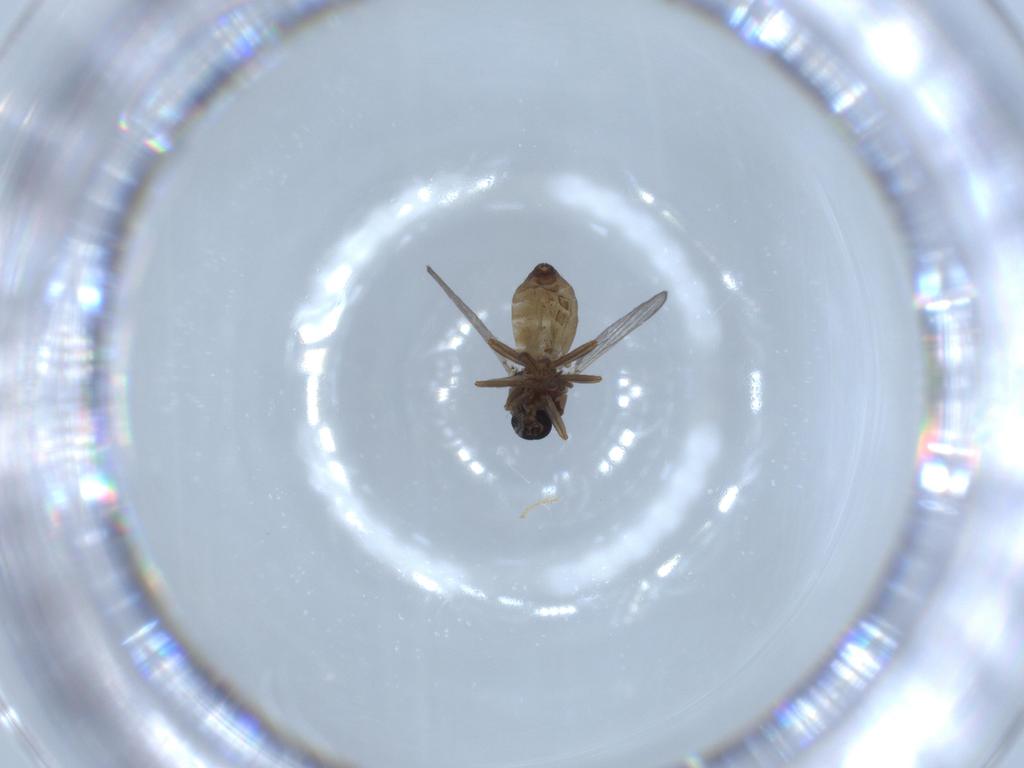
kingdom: Animalia
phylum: Arthropoda
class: Insecta
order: Diptera
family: Ceratopogonidae
